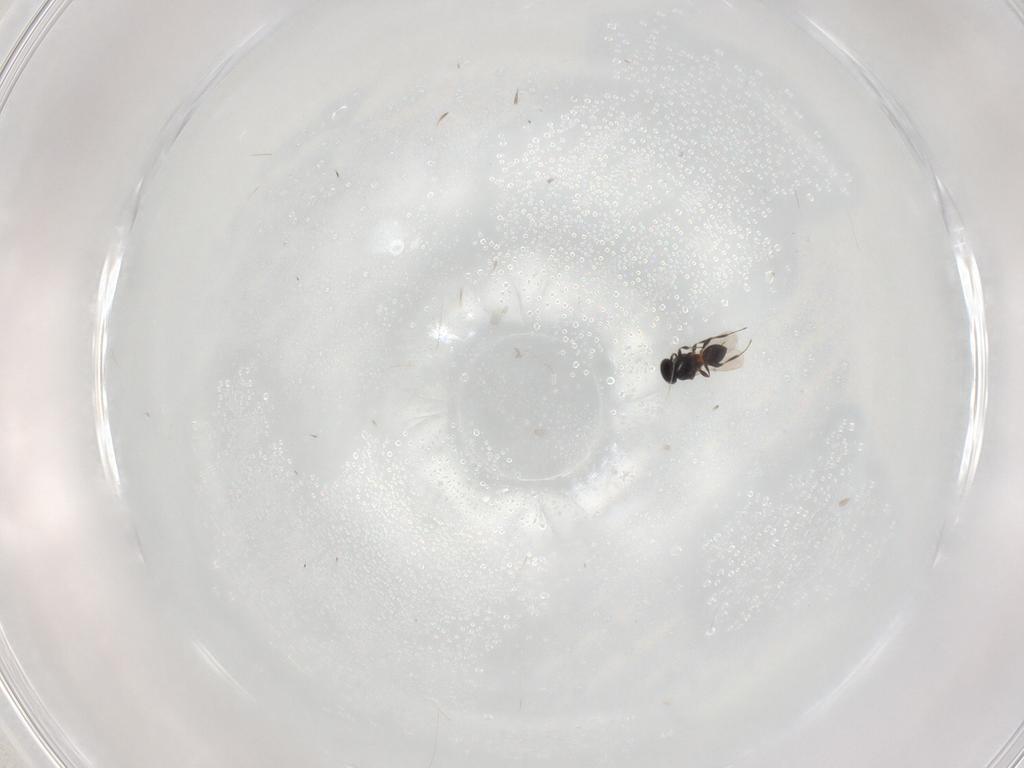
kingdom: Animalia
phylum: Arthropoda
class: Insecta
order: Hymenoptera
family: Platygastridae
